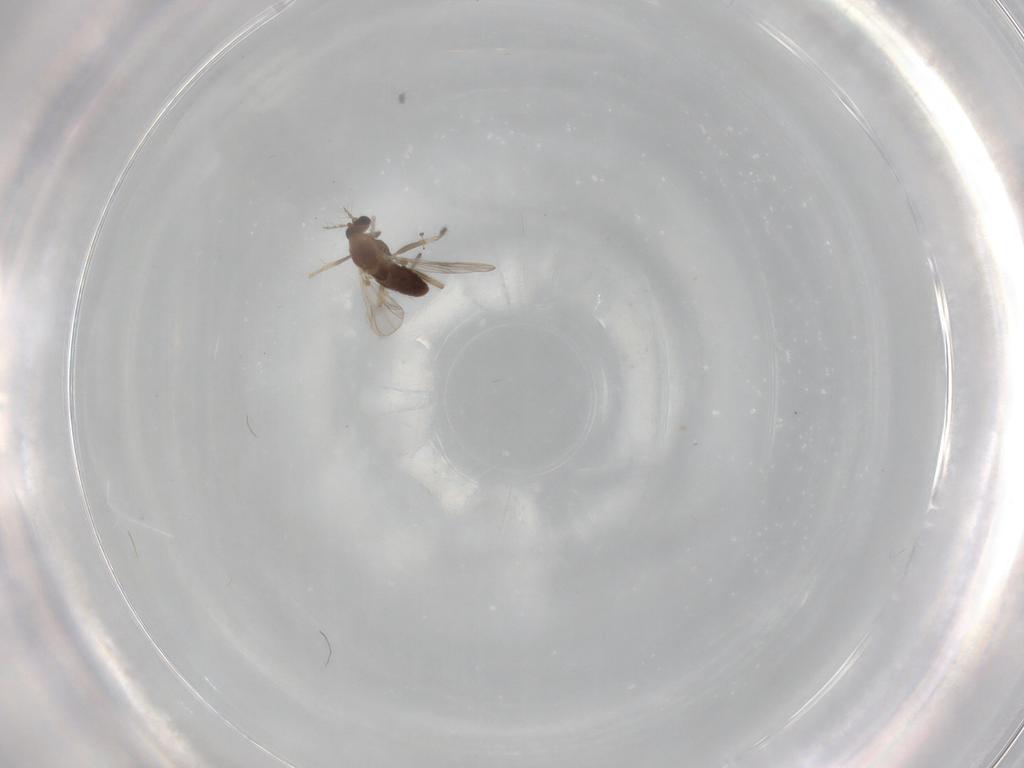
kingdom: Animalia
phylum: Arthropoda
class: Insecta
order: Diptera
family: Chironomidae
